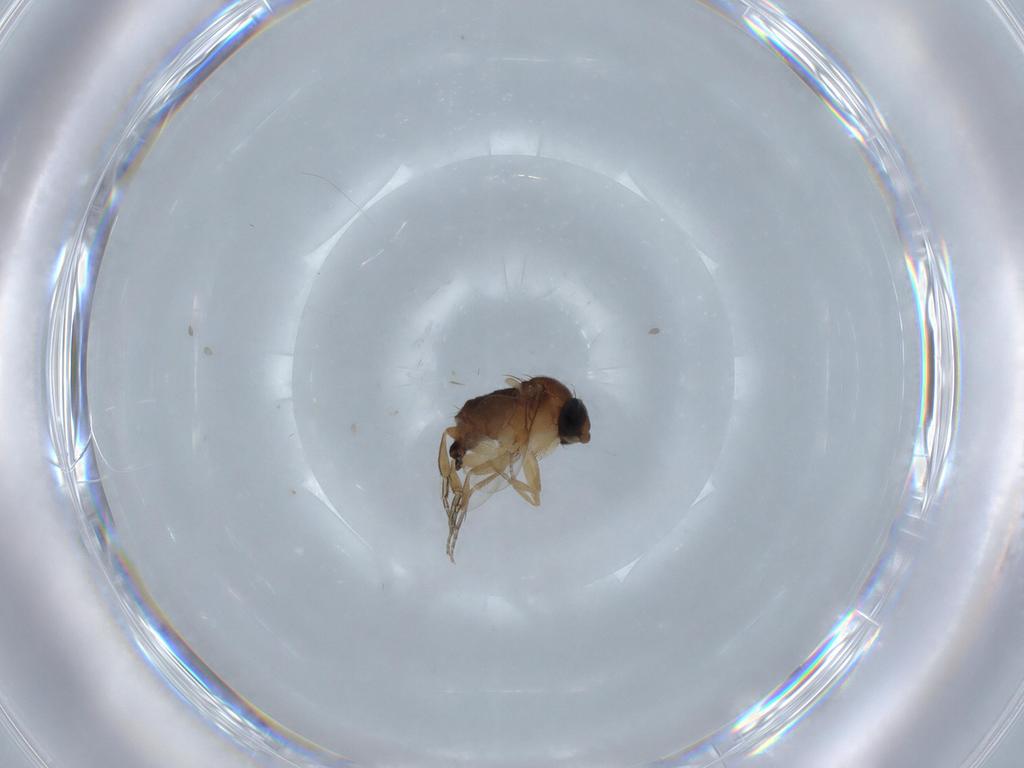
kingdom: Animalia
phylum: Arthropoda
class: Insecta
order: Diptera
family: Phoridae
